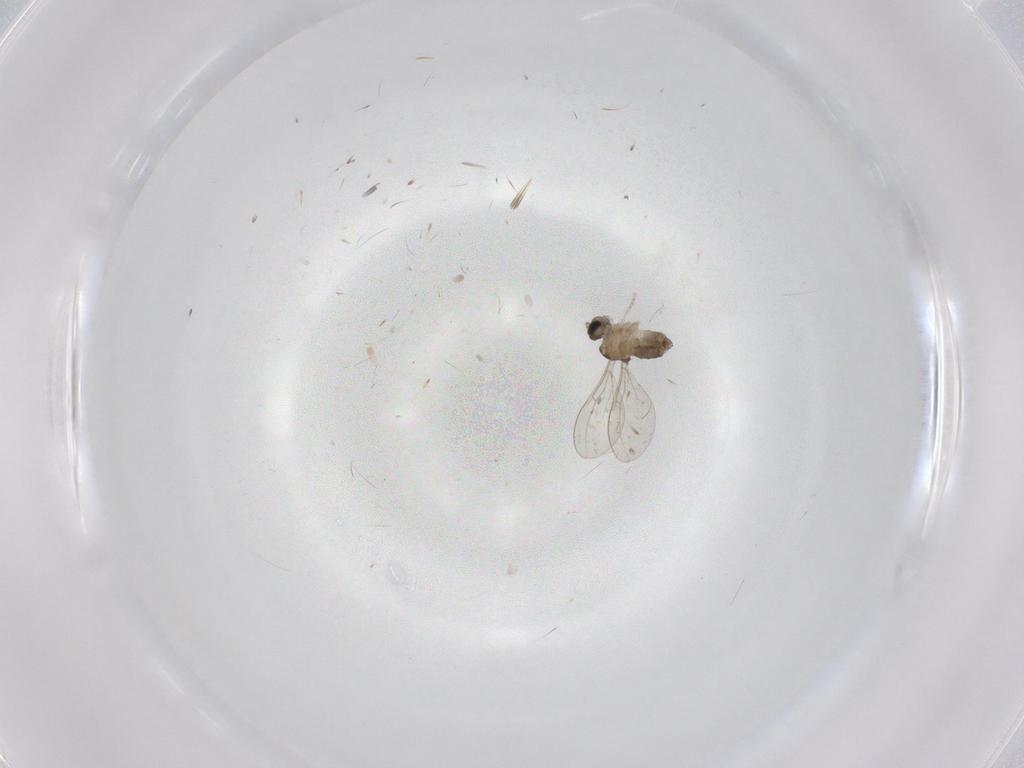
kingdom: Animalia
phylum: Arthropoda
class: Insecta
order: Diptera
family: Cecidomyiidae
